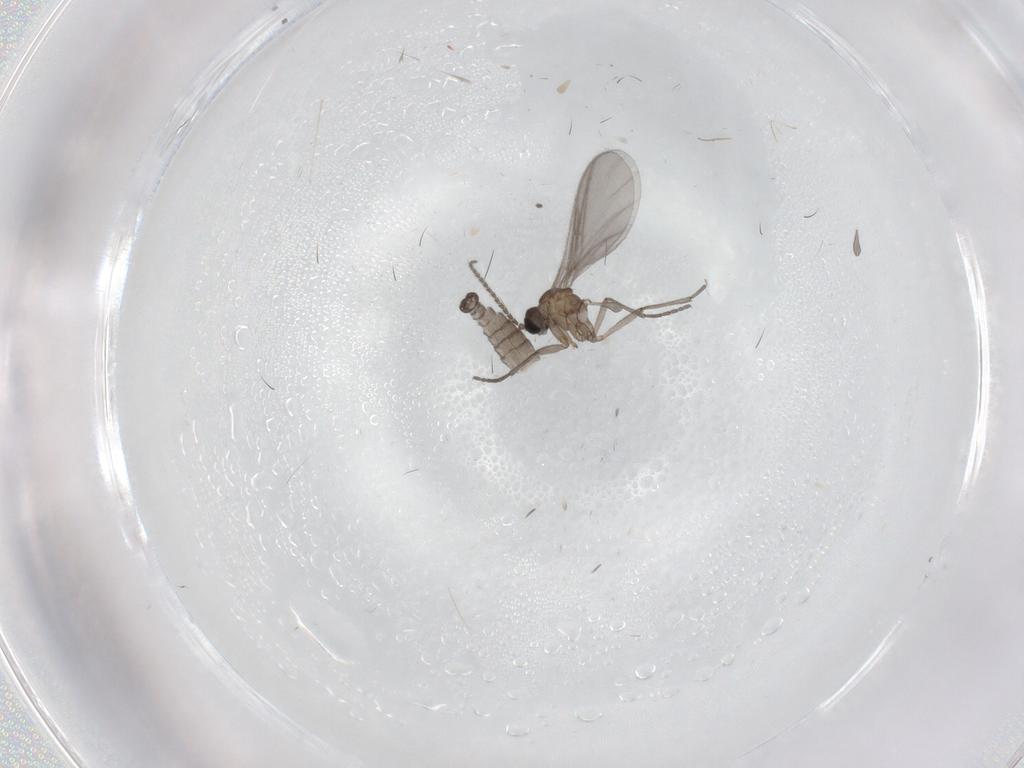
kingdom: Animalia
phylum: Arthropoda
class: Insecta
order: Diptera
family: Sciaridae
